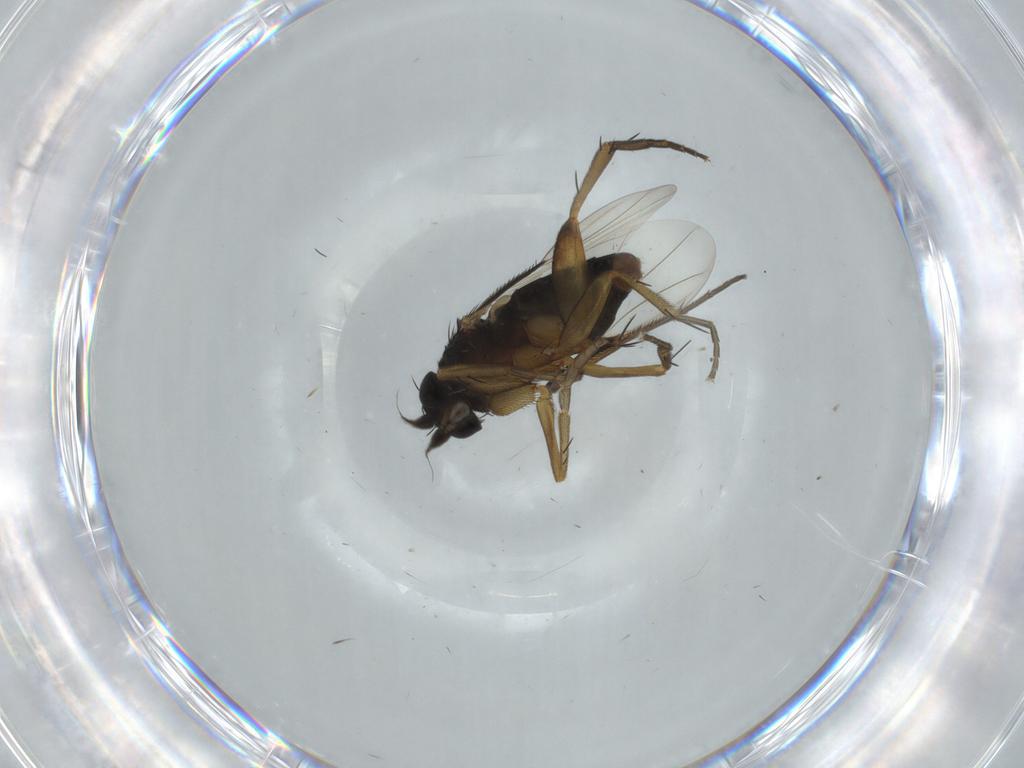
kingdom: Animalia
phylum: Arthropoda
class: Insecta
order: Diptera
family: Phoridae
